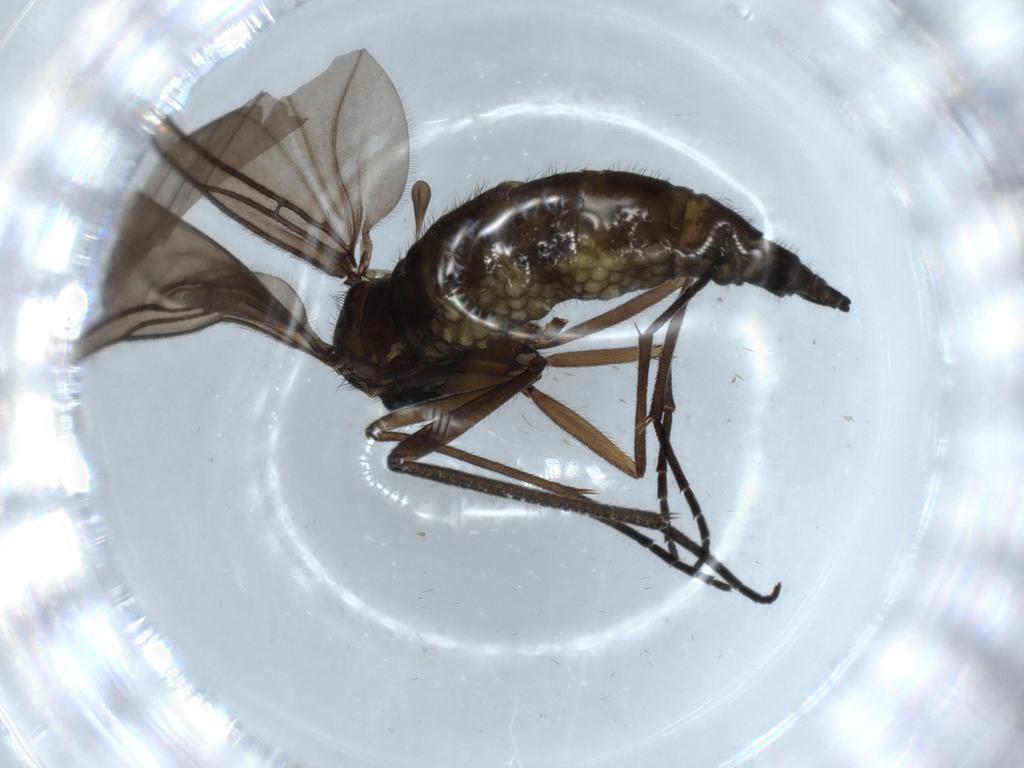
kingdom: Animalia
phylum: Arthropoda
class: Insecta
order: Diptera
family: Sciaridae
